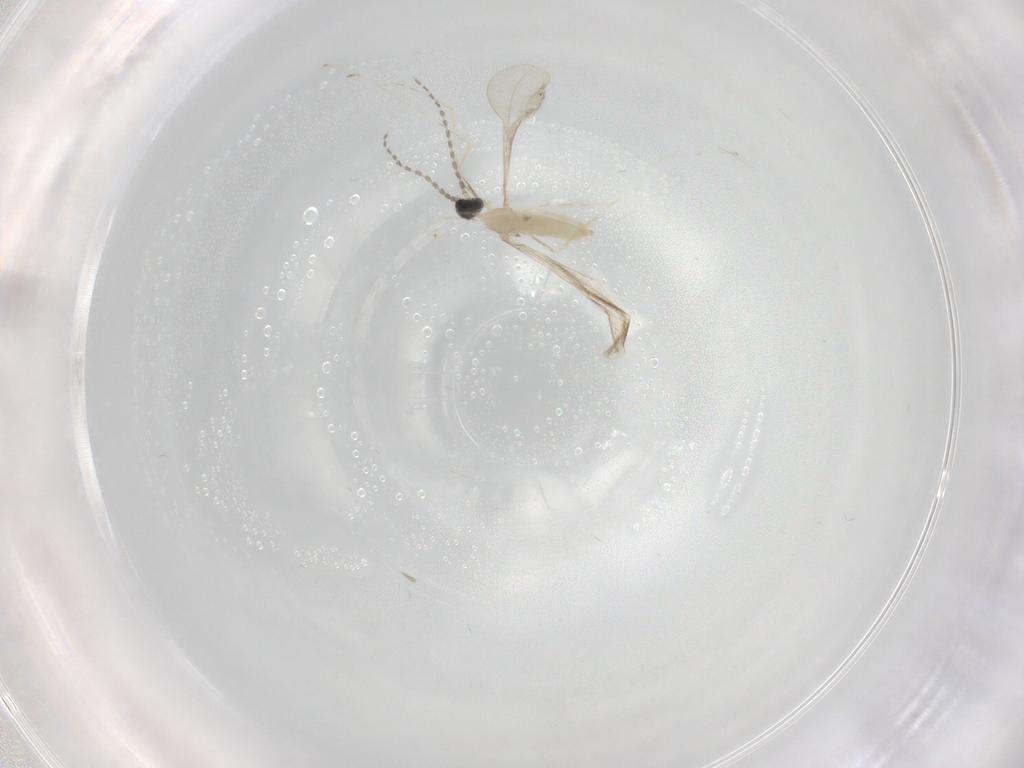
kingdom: Animalia
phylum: Arthropoda
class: Insecta
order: Diptera
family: Cecidomyiidae
